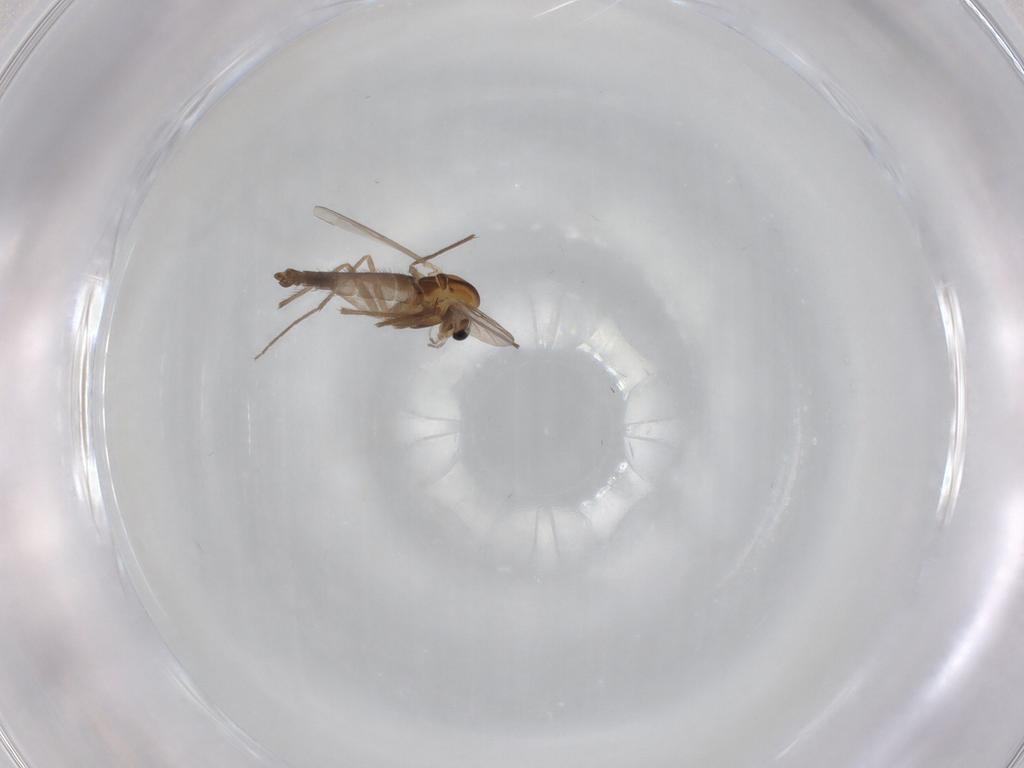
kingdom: Animalia
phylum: Arthropoda
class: Insecta
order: Diptera
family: Chironomidae
